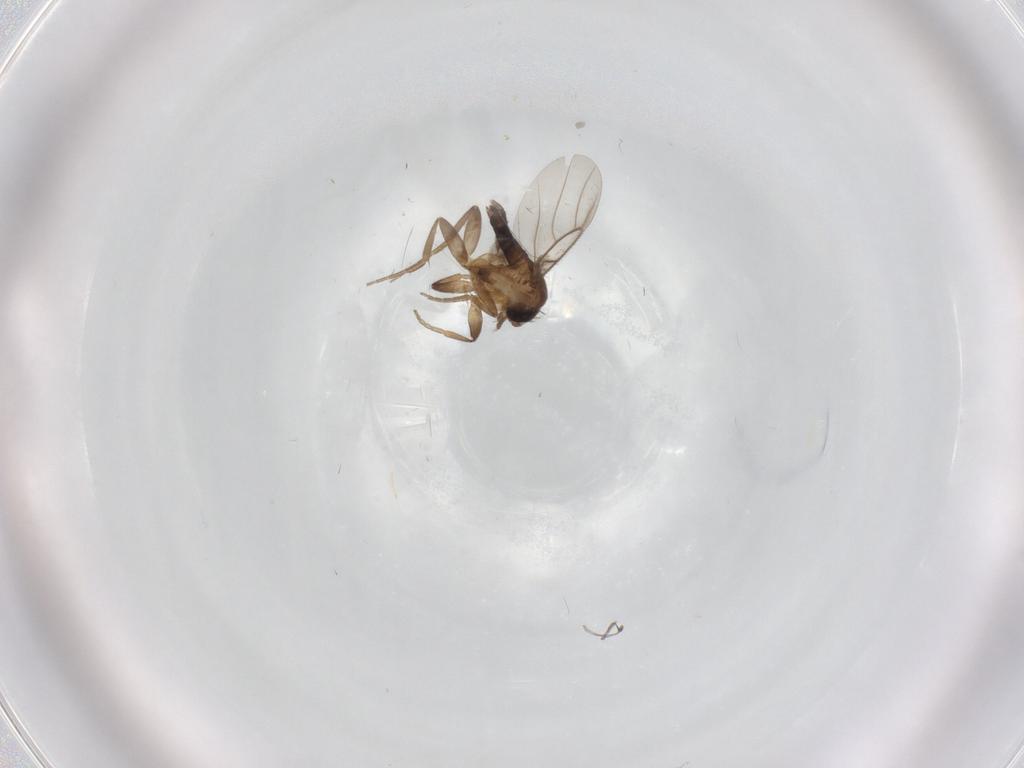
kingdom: Animalia
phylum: Arthropoda
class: Insecta
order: Diptera
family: Phoridae
